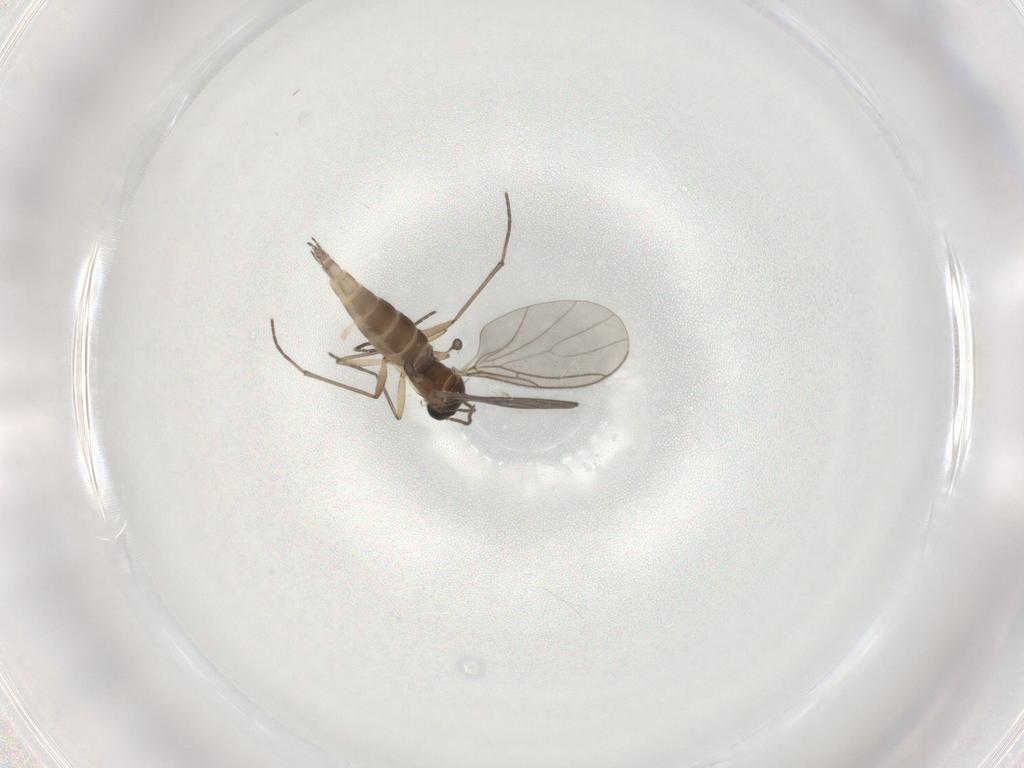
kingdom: Animalia
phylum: Arthropoda
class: Insecta
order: Diptera
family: Sciaridae
